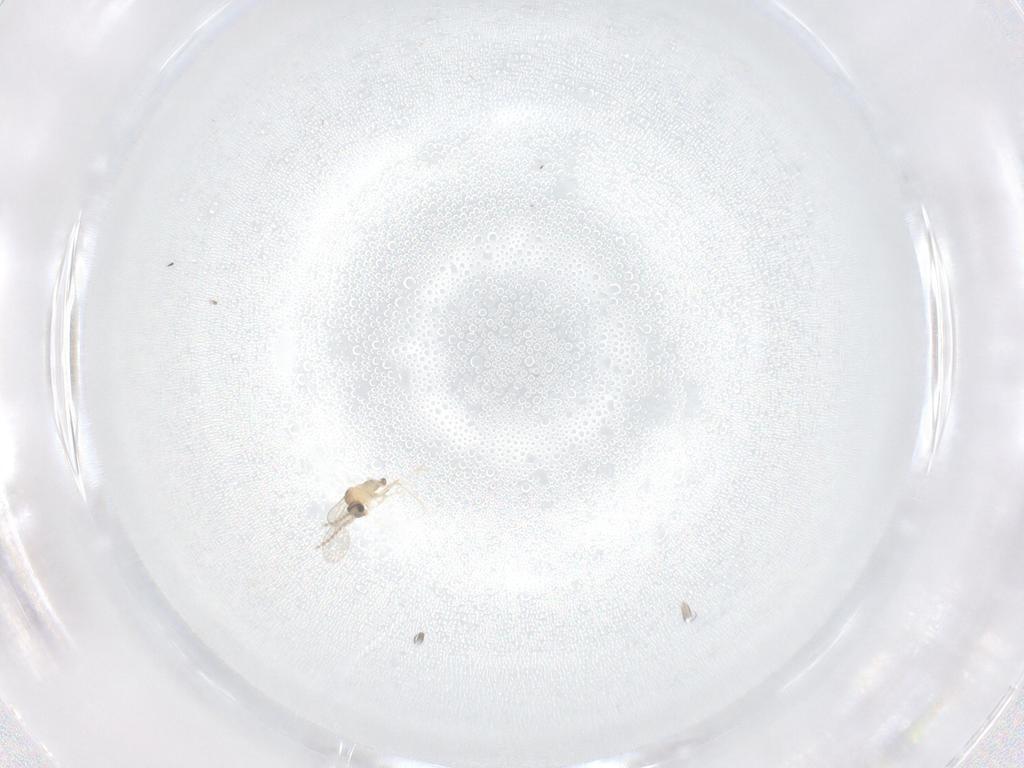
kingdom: Animalia
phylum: Arthropoda
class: Insecta
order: Diptera
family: Cecidomyiidae
